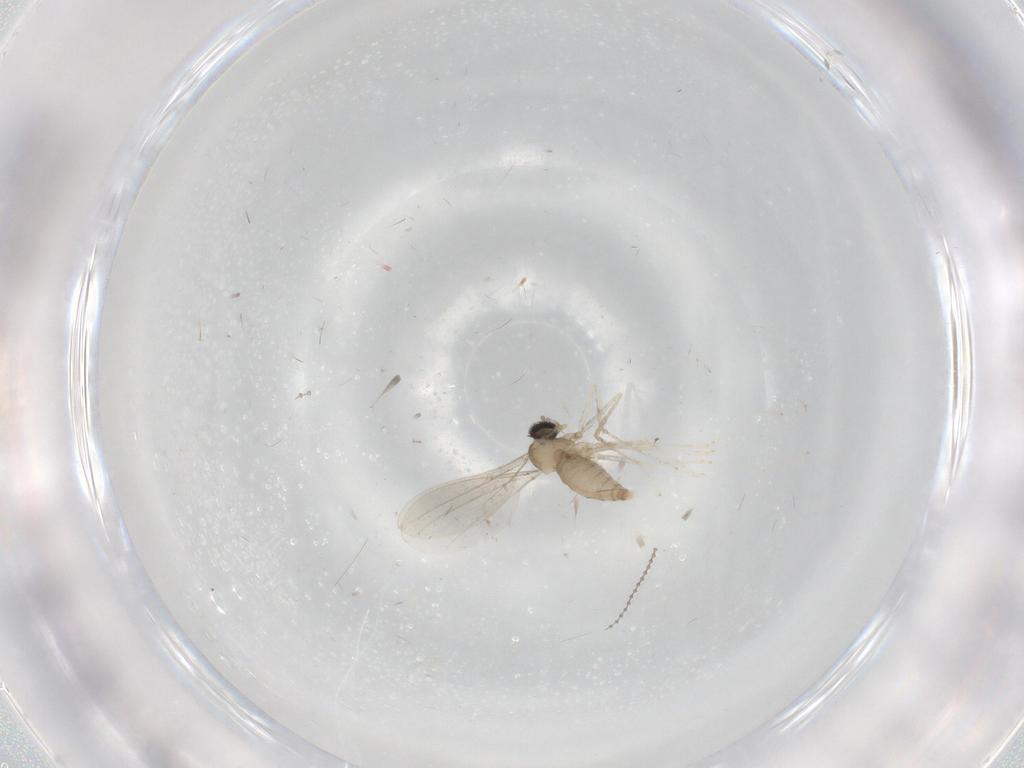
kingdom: Animalia
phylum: Arthropoda
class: Insecta
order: Diptera
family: Cecidomyiidae
